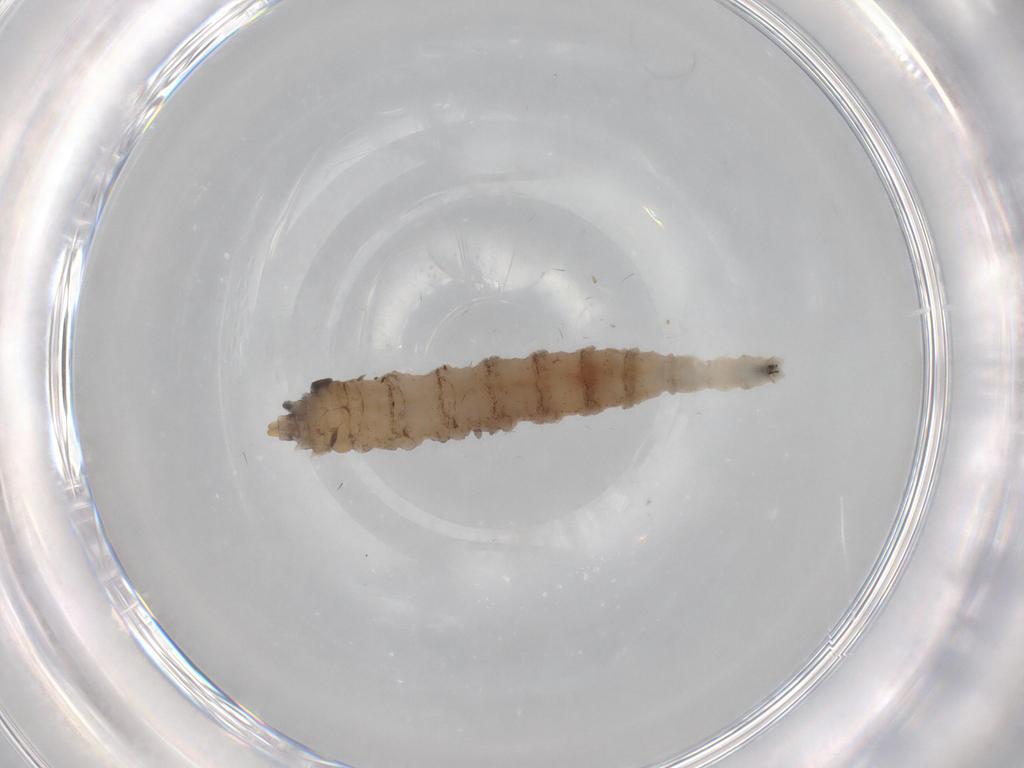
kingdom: Animalia
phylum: Arthropoda
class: Insecta
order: Diptera
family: Drosophilidae
